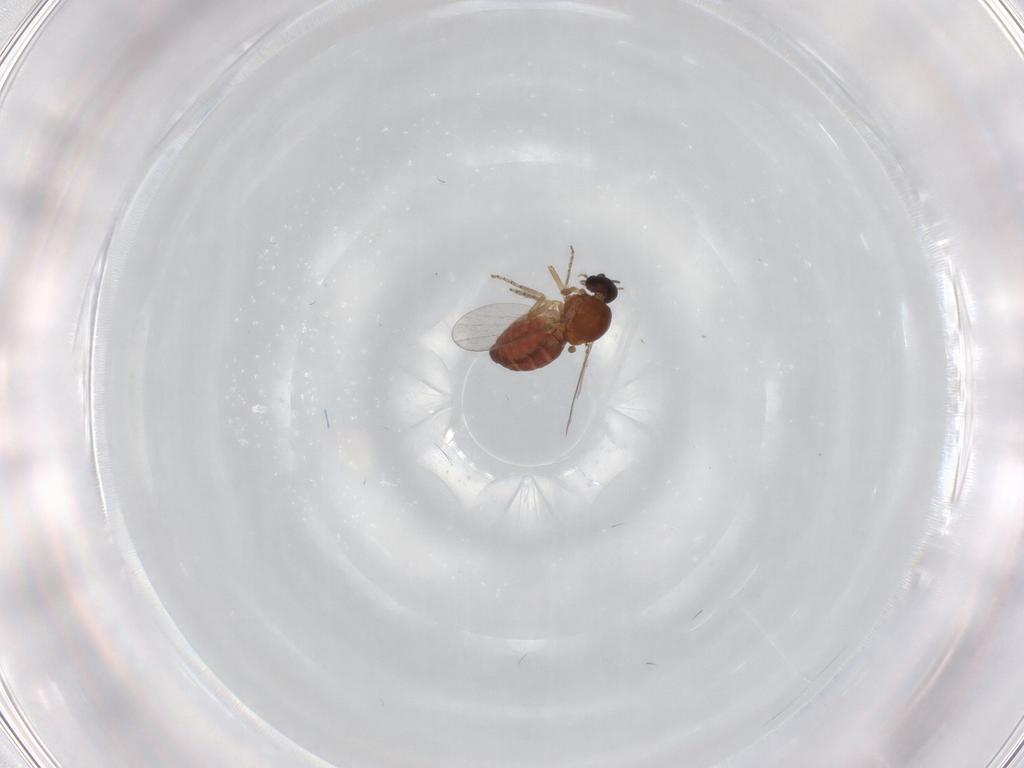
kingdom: Animalia
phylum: Arthropoda
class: Insecta
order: Diptera
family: Ceratopogonidae
